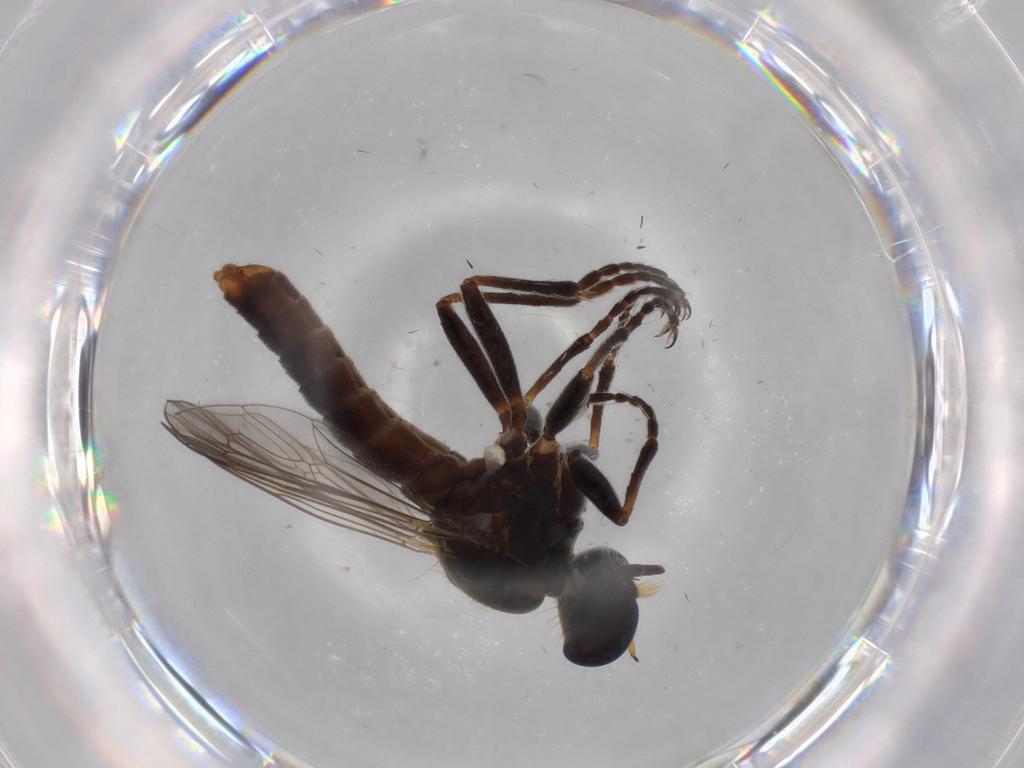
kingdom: Animalia
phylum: Arthropoda
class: Insecta
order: Diptera
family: Asilidae
